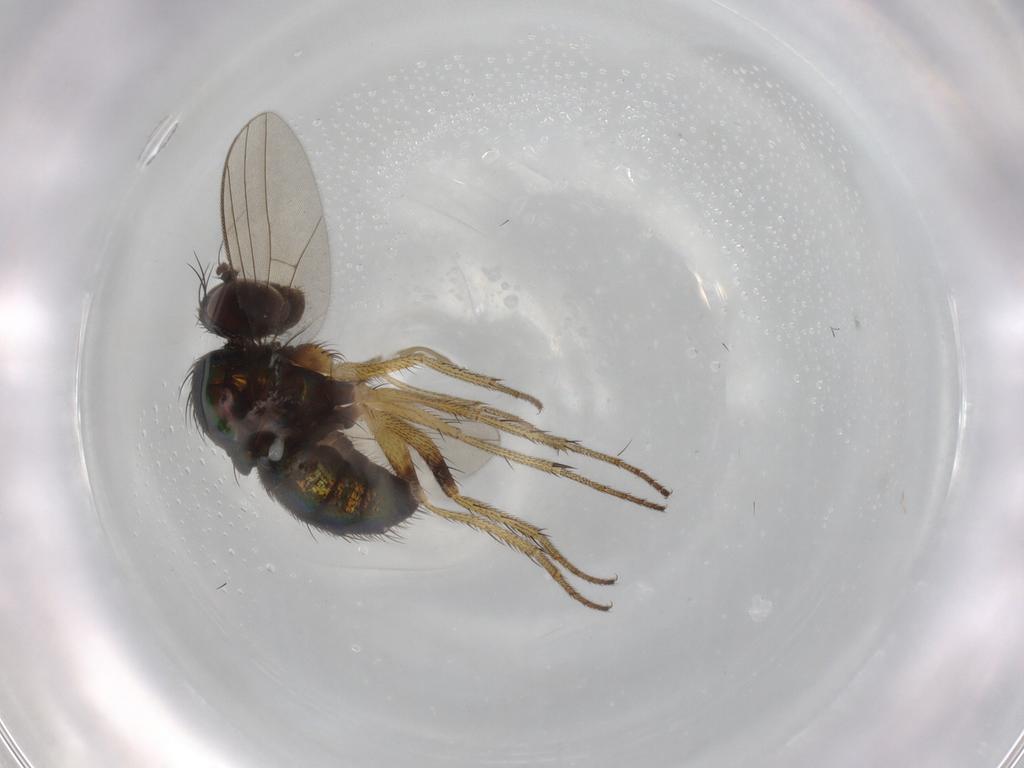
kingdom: Animalia
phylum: Arthropoda
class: Insecta
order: Diptera
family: Dolichopodidae
